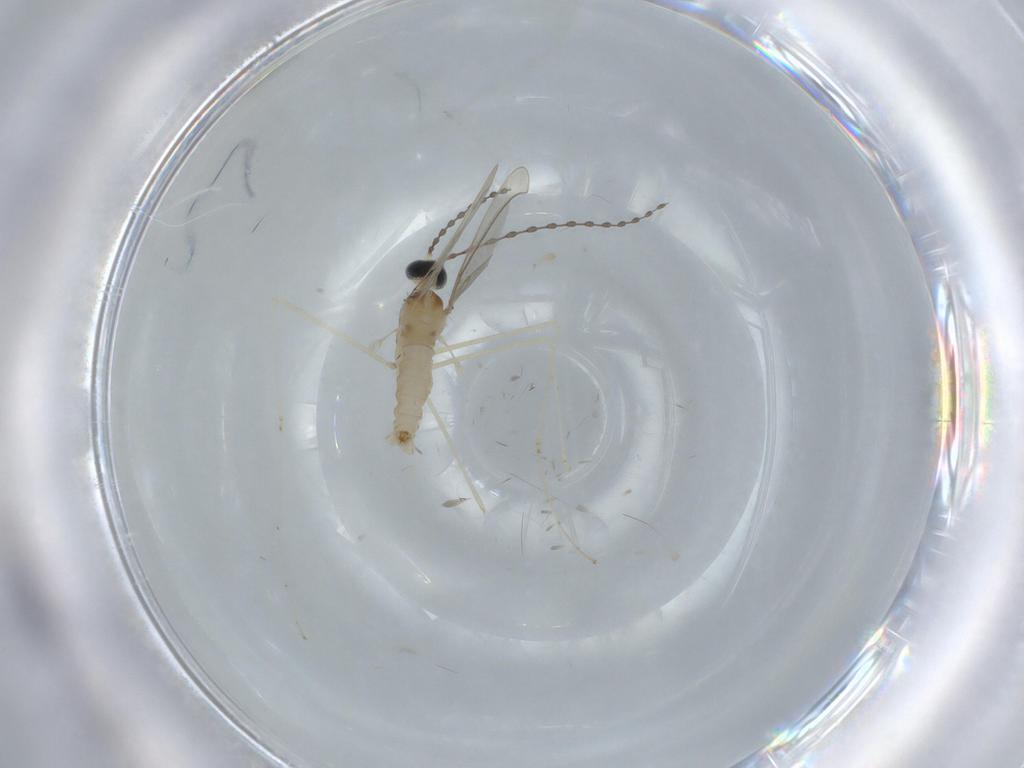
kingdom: Animalia
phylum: Arthropoda
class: Insecta
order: Diptera
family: Cecidomyiidae
